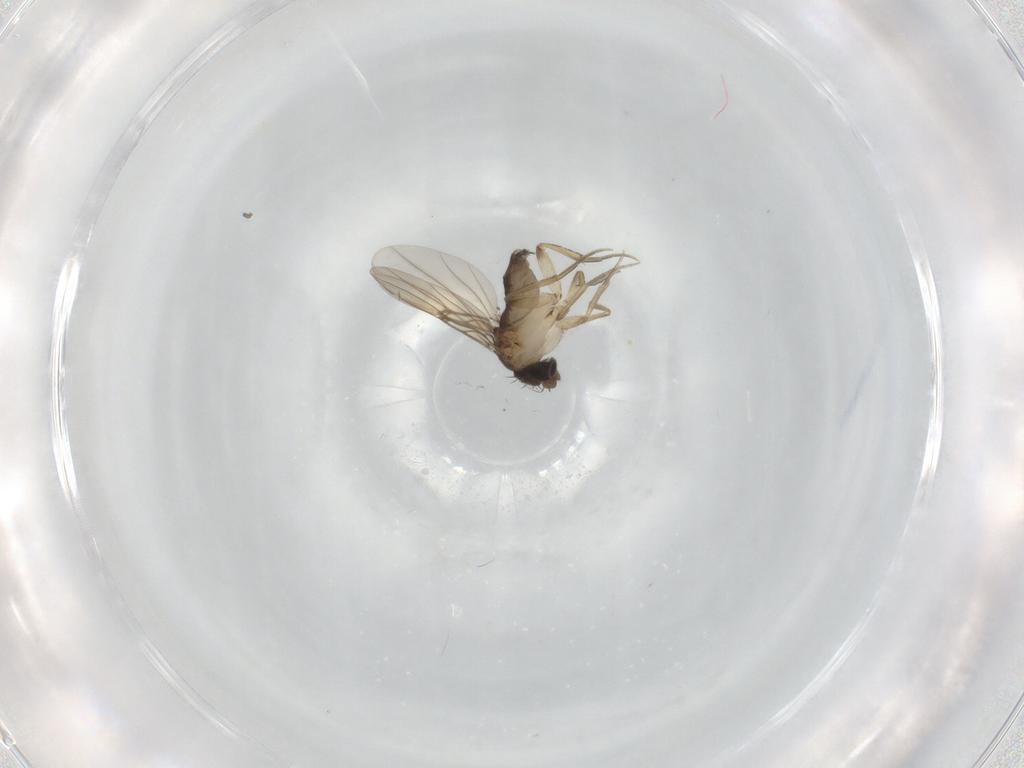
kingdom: Animalia
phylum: Arthropoda
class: Insecta
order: Diptera
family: Phoridae
